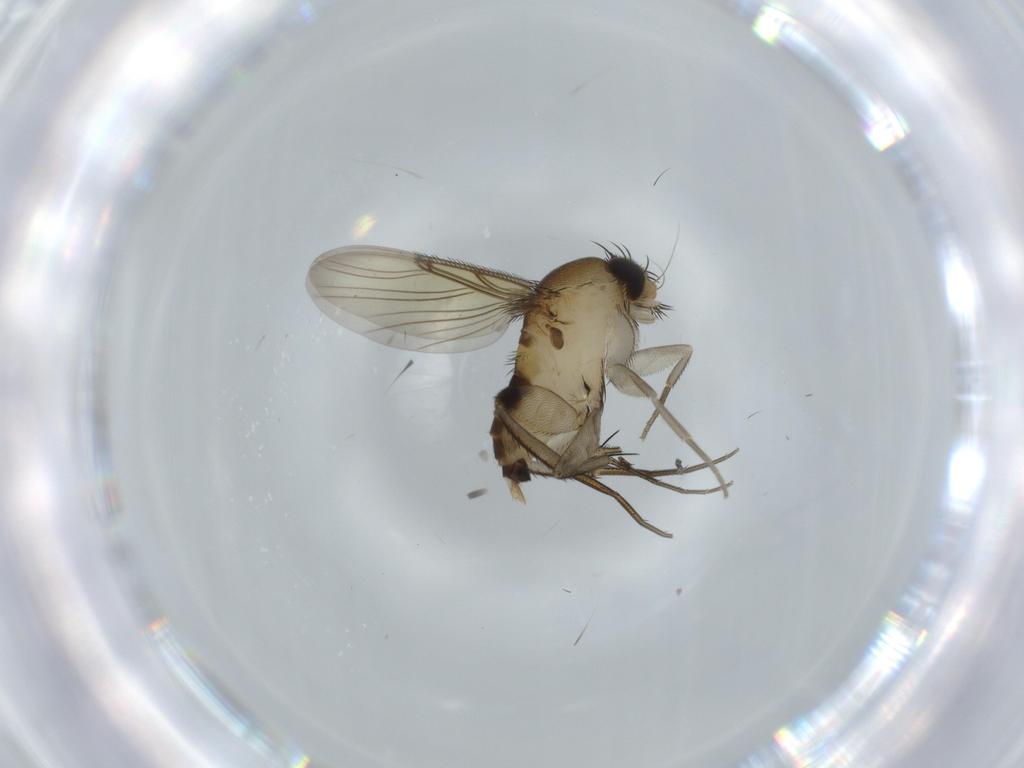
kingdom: Animalia
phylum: Arthropoda
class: Insecta
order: Diptera
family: Phoridae
